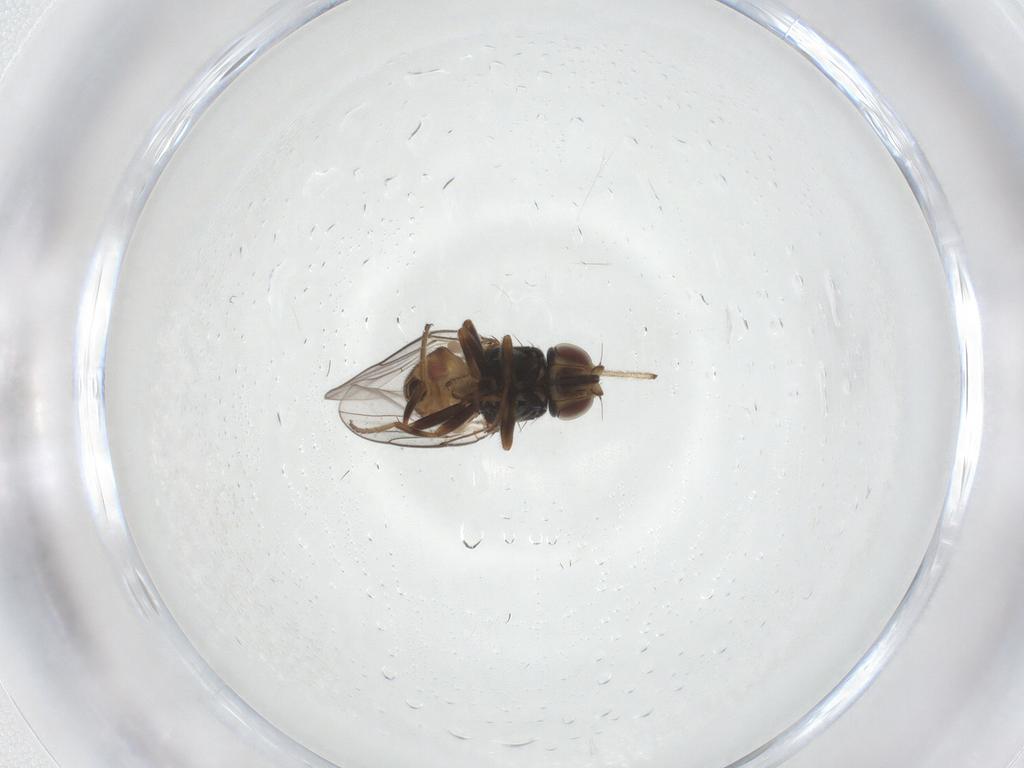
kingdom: Animalia
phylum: Arthropoda
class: Insecta
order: Diptera
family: Chloropidae
